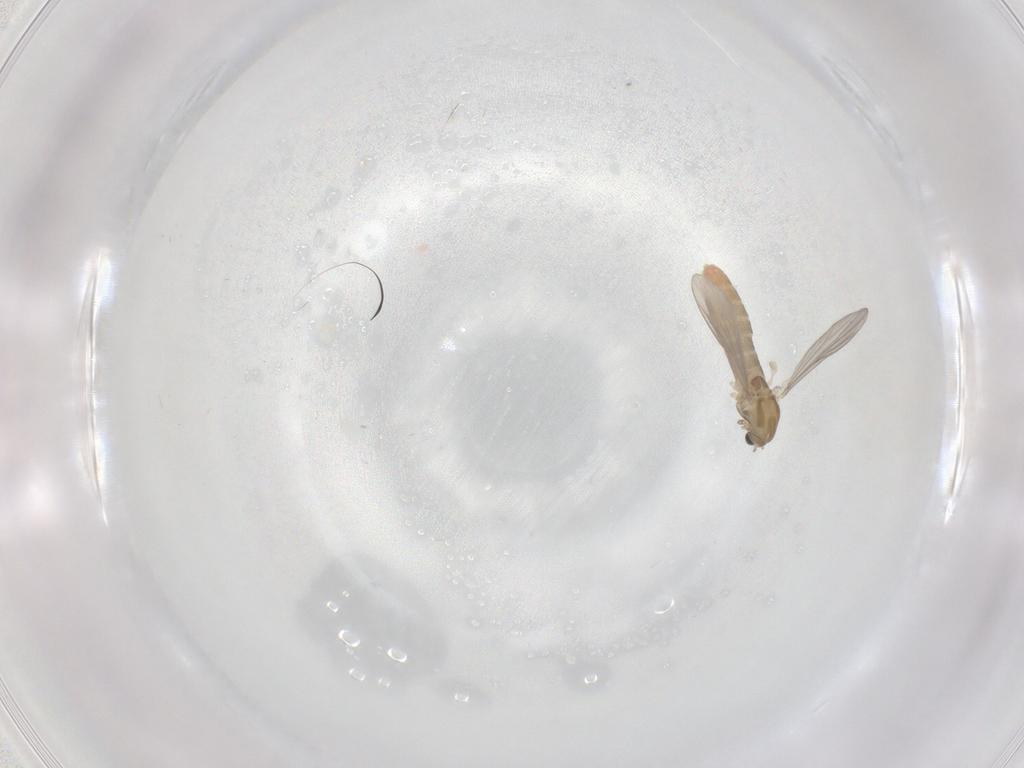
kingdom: Animalia
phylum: Arthropoda
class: Insecta
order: Diptera
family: Chironomidae
